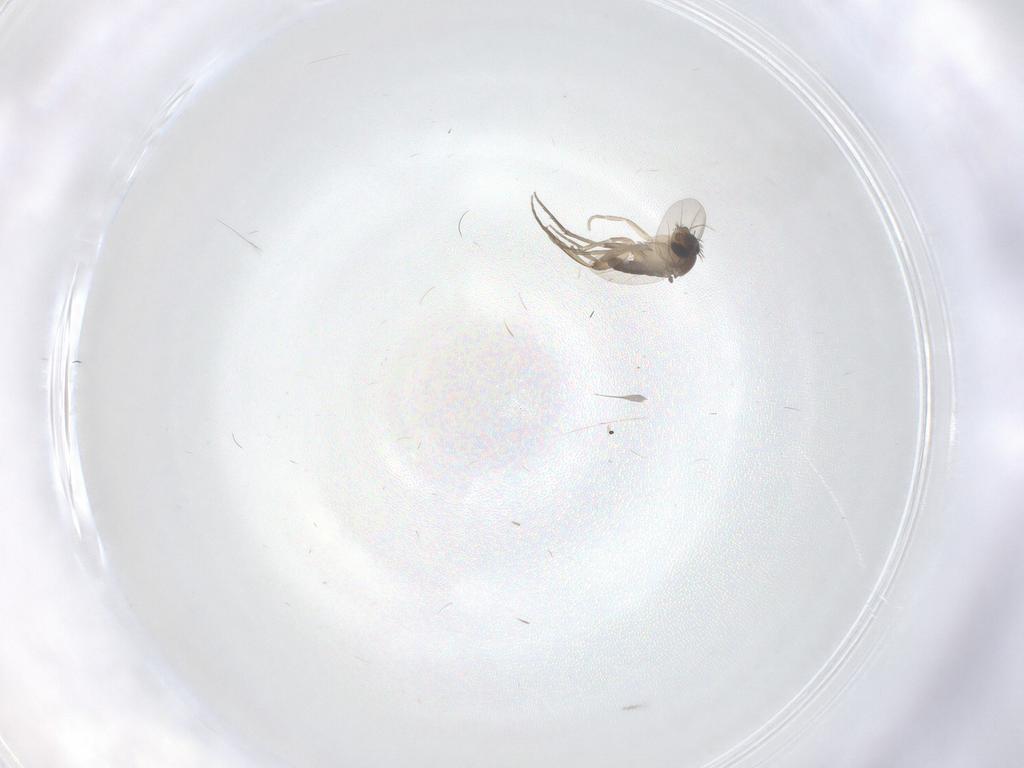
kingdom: Animalia
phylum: Arthropoda
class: Insecta
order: Diptera
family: Phoridae
